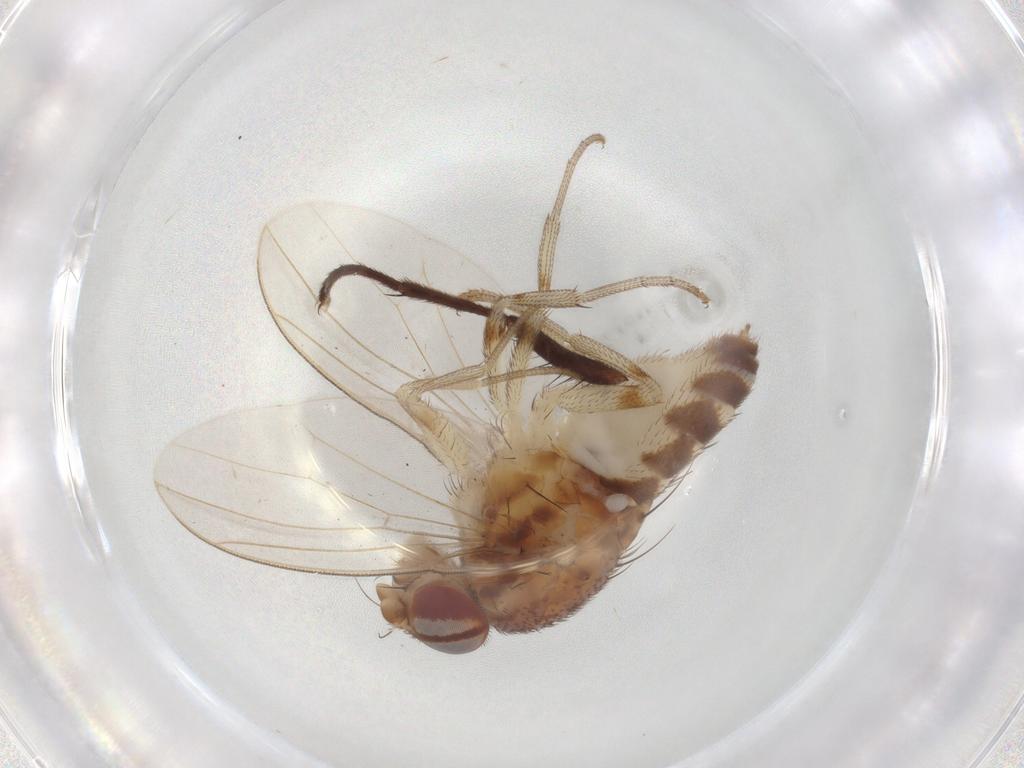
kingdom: Animalia
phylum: Arthropoda
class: Insecta
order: Diptera
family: Drosophilidae
